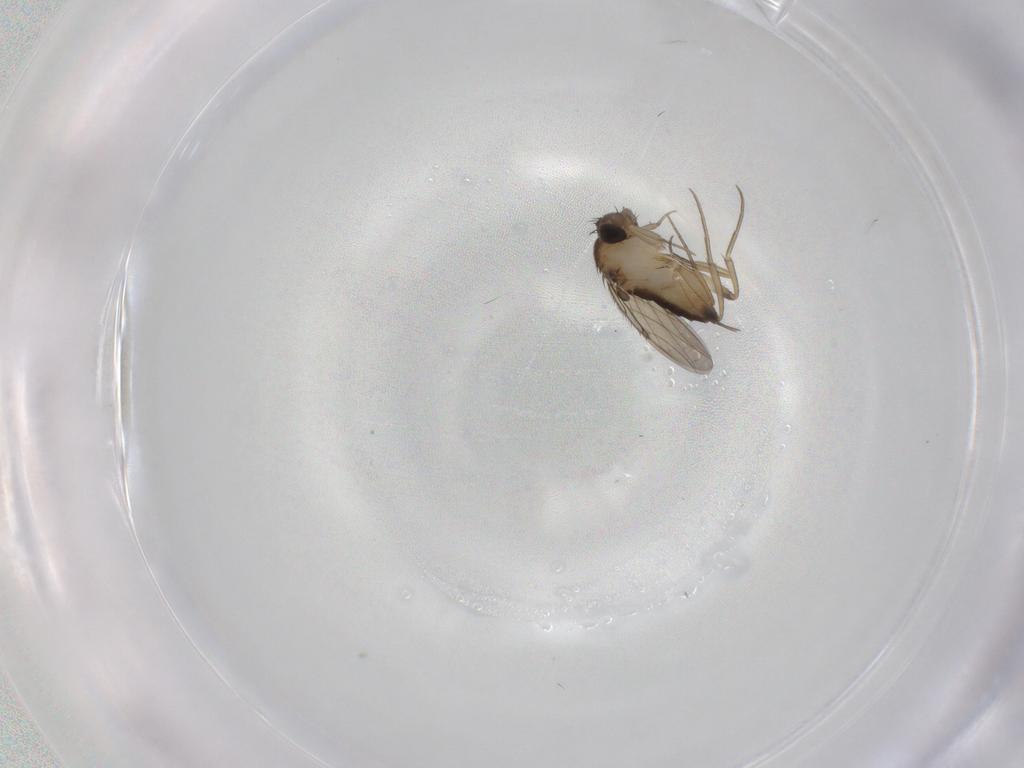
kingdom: Animalia
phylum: Arthropoda
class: Insecta
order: Diptera
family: Phoridae
